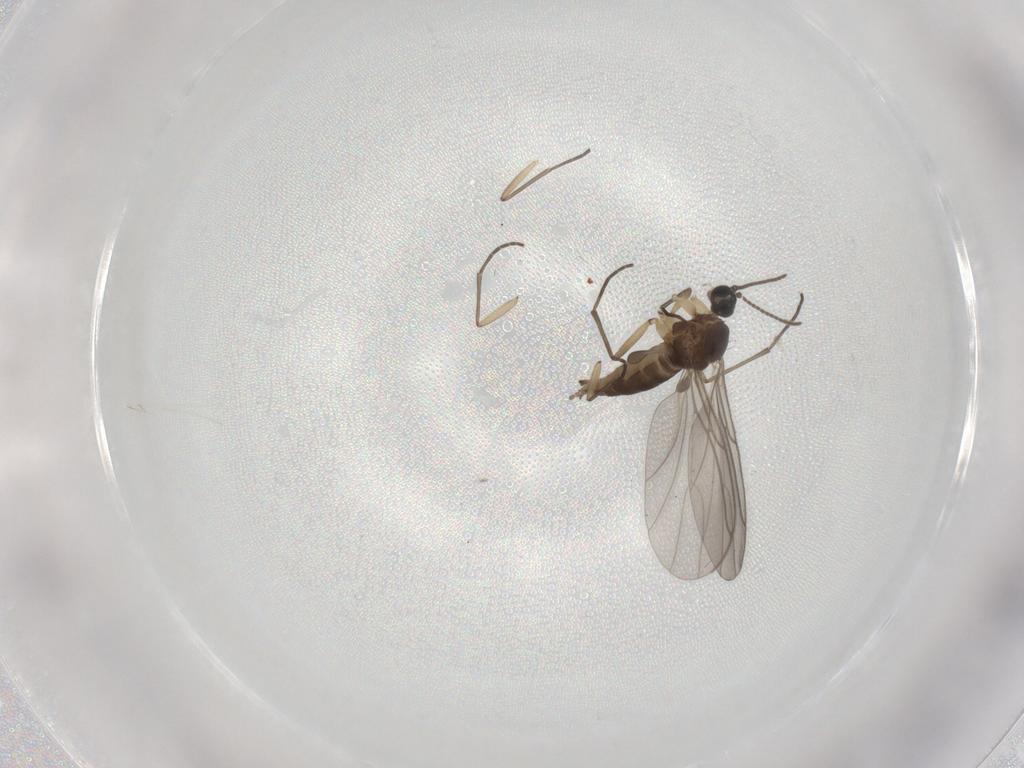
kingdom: Animalia
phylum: Arthropoda
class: Insecta
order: Diptera
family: Sciaridae
